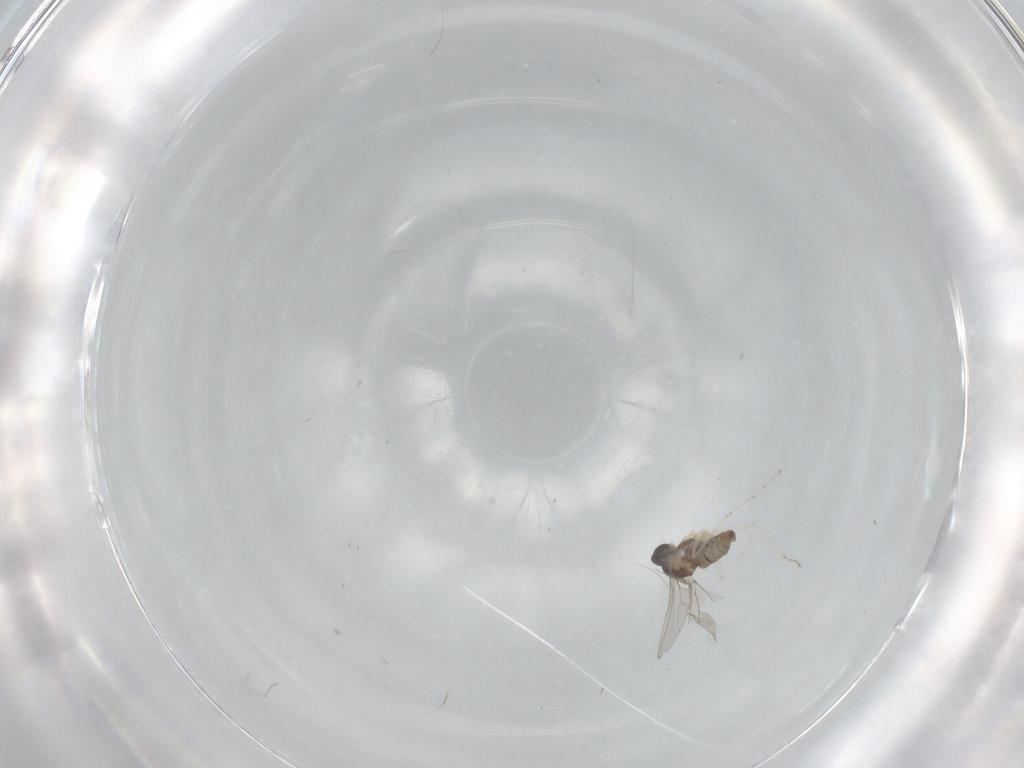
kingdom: Animalia
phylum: Arthropoda
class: Insecta
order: Diptera
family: Cecidomyiidae
